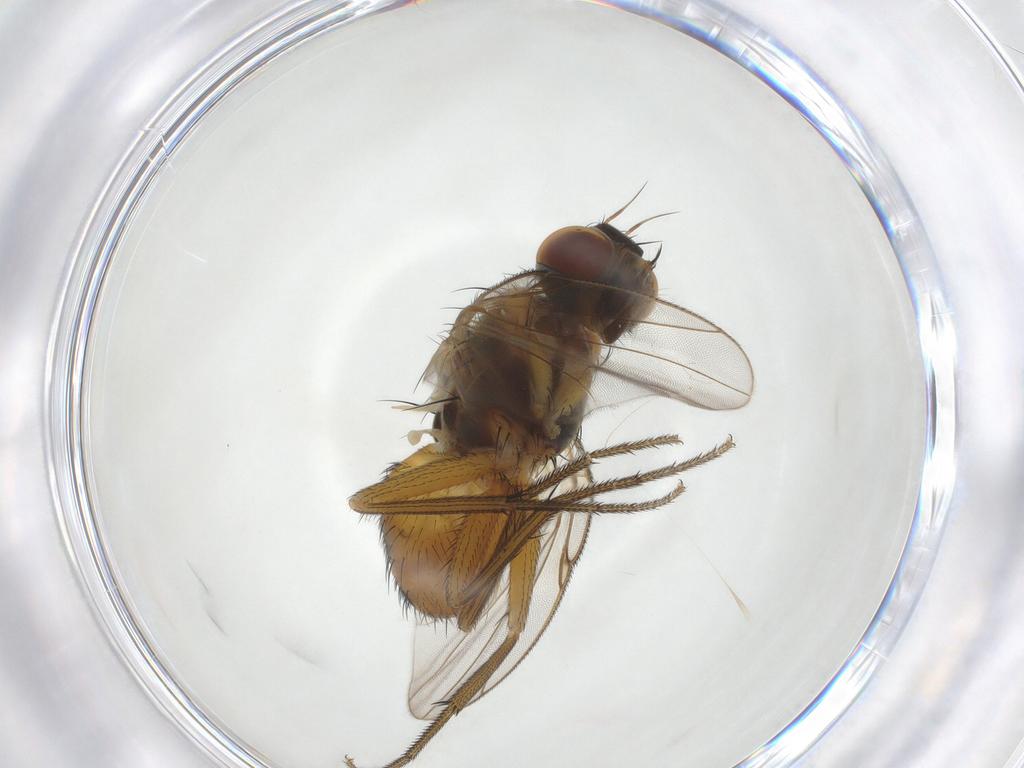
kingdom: Animalia
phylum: Arthropoda
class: Insecta
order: Diptera
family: Muscidae
